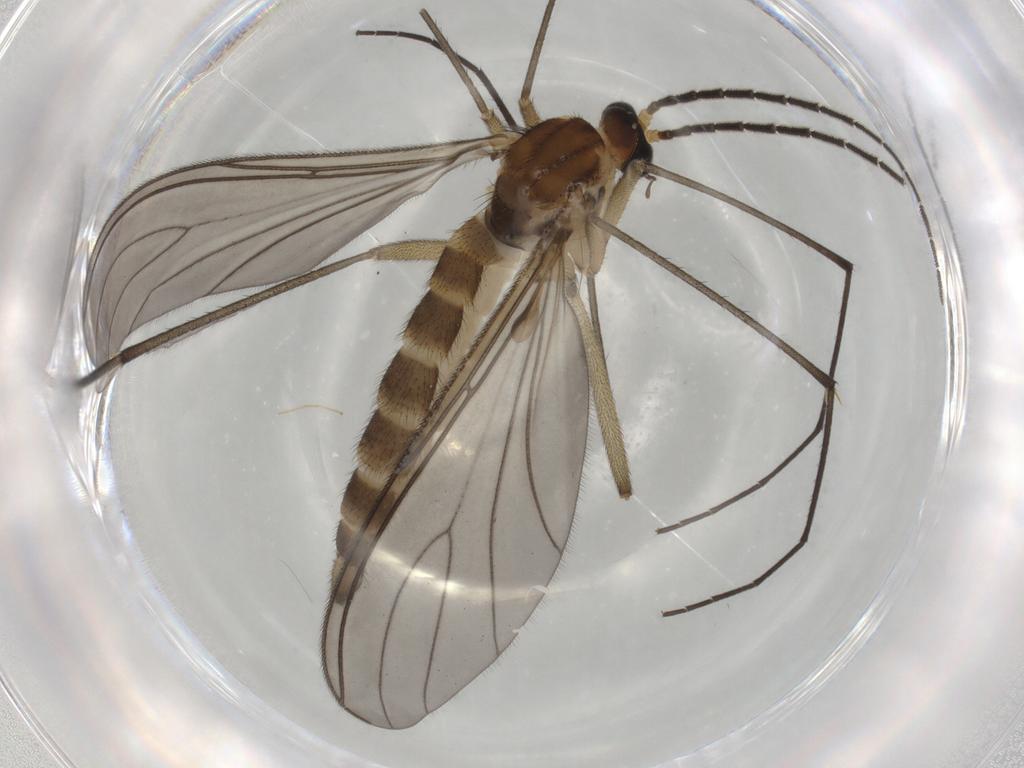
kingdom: Animalia
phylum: Arthropoda
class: Insecta
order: Diptera
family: Sciaridae
